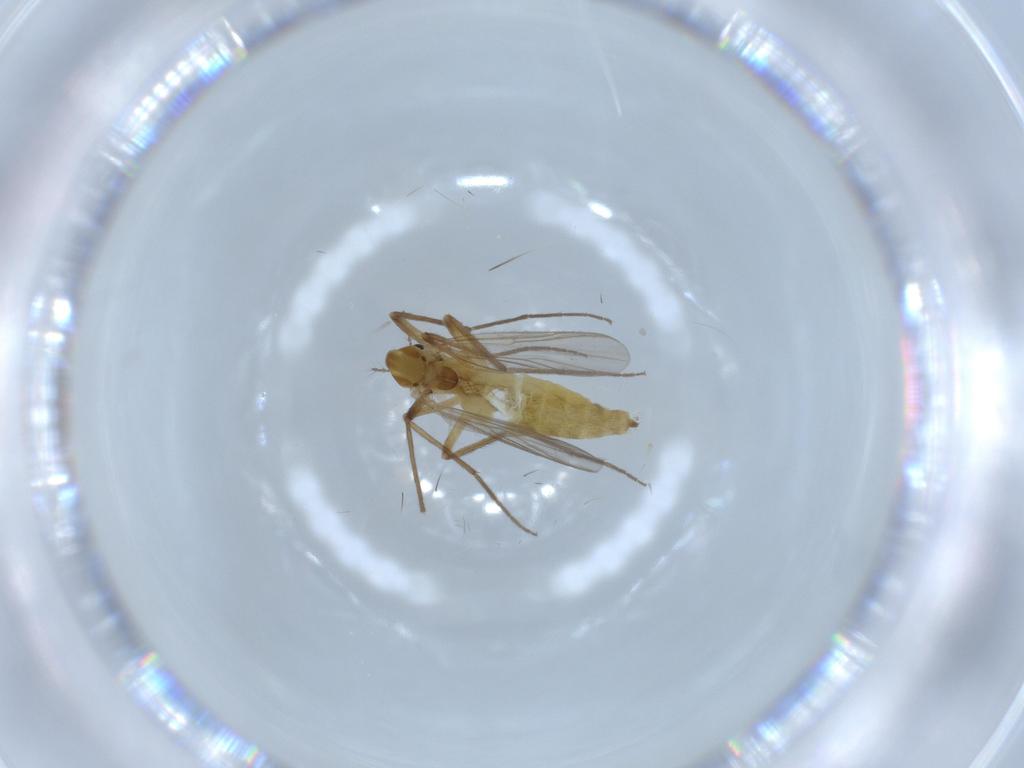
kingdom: Animalia
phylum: Arthropoda
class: Insecta
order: Diptera
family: Chironomidae
